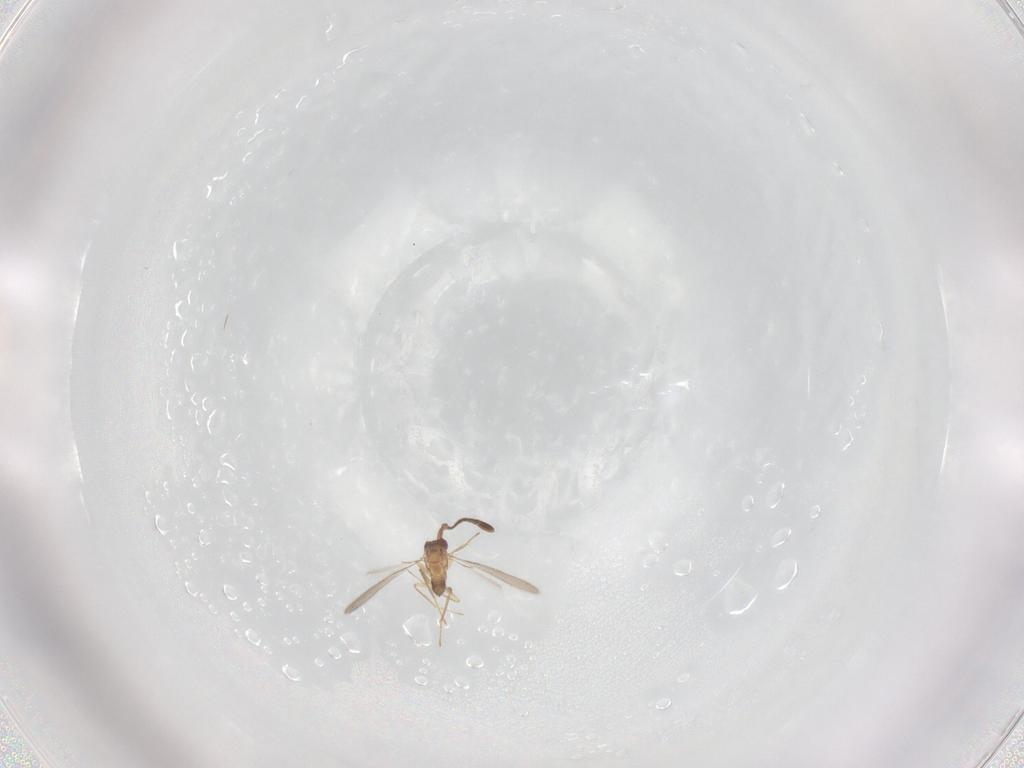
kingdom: Animalia
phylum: Arthropoda
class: Insecta
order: Hymenoptera
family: Mymaridae
